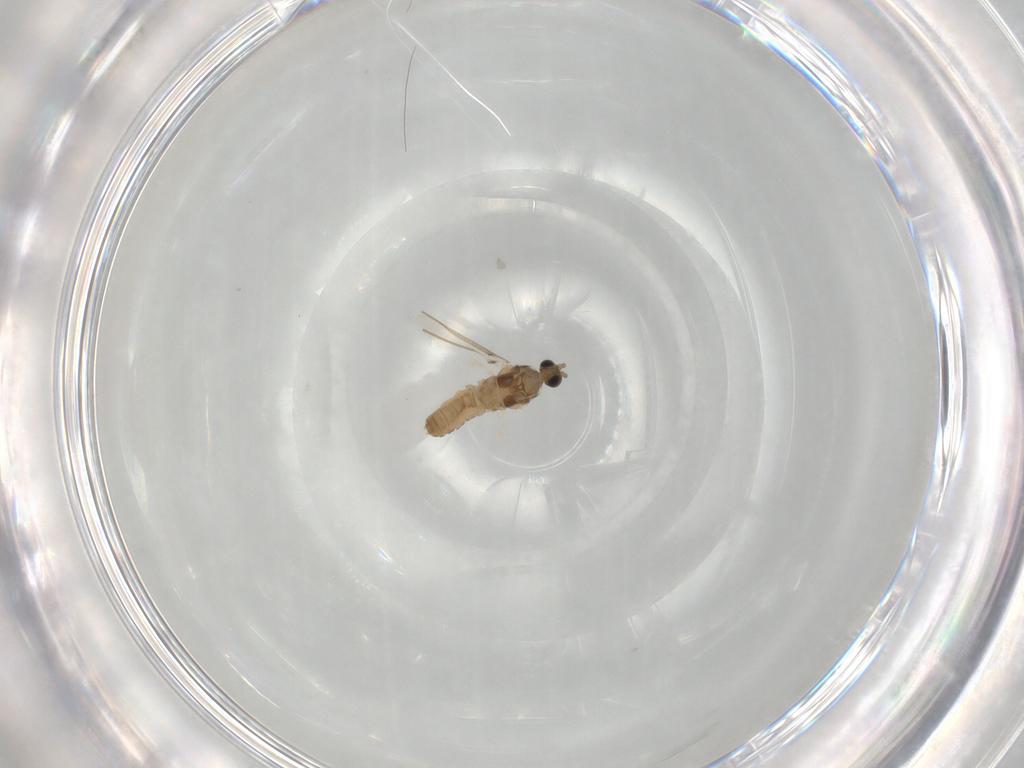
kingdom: Animalia
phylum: Arthropoda
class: Insecta
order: Diptera
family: Cecidomyiidae
